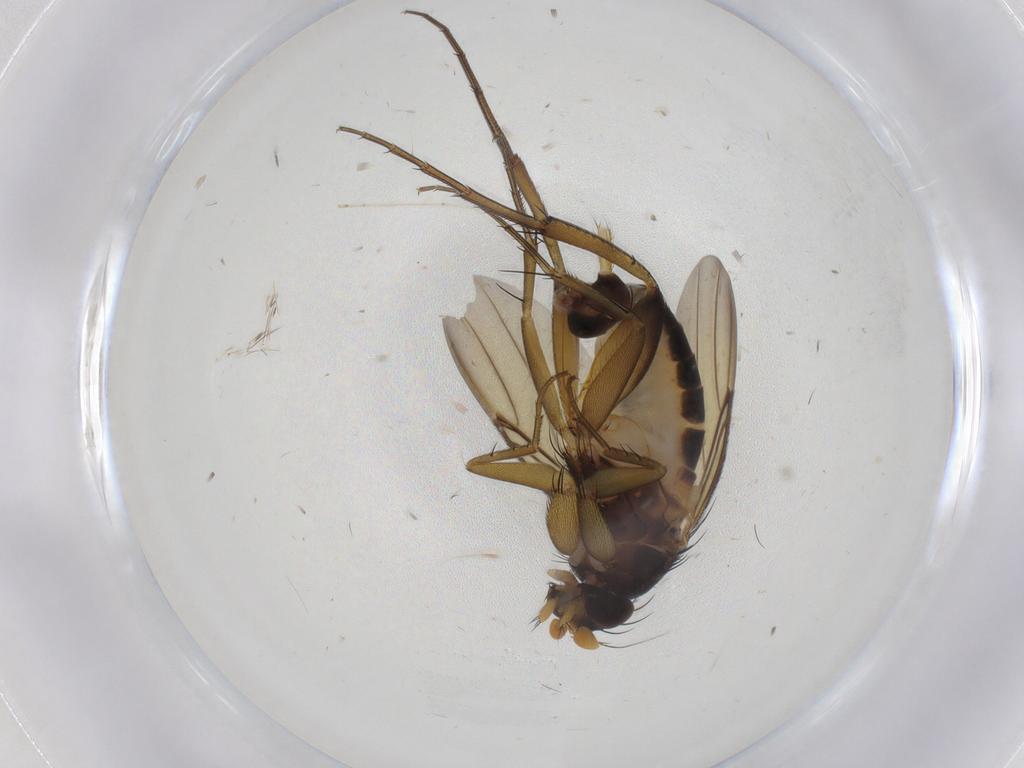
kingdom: Animalia
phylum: Arthropoda
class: Insecta
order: Diptera
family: Phoridae
